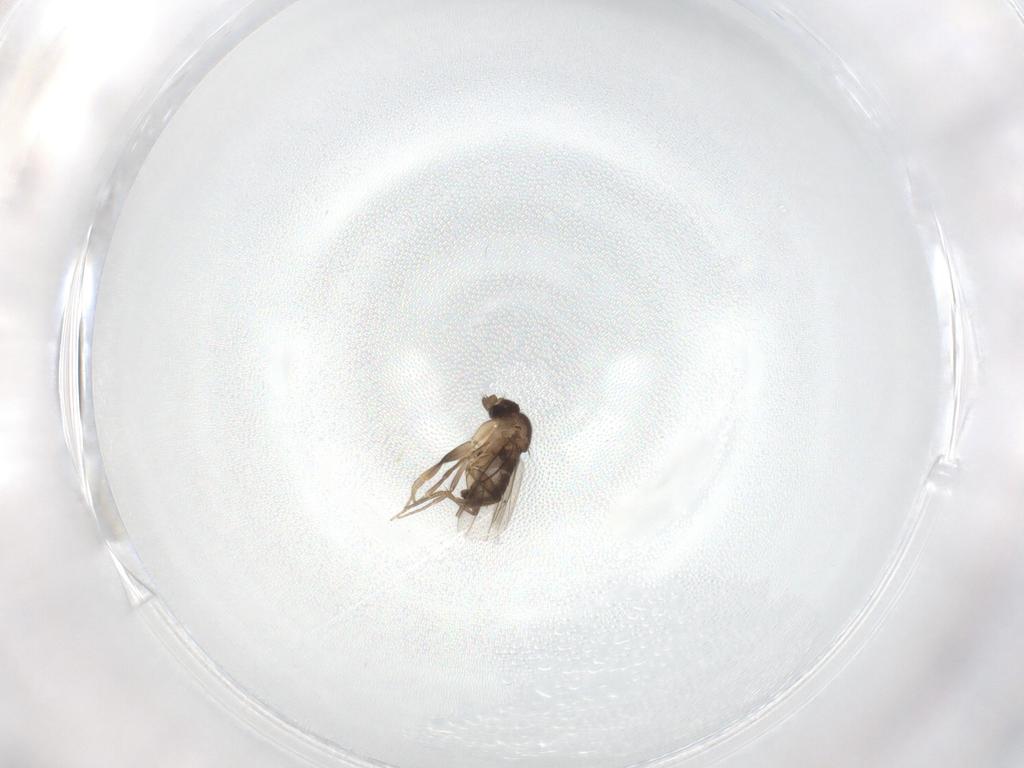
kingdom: Animalia
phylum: Arthropoda
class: Insecta
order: Diptera
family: Phoridae
